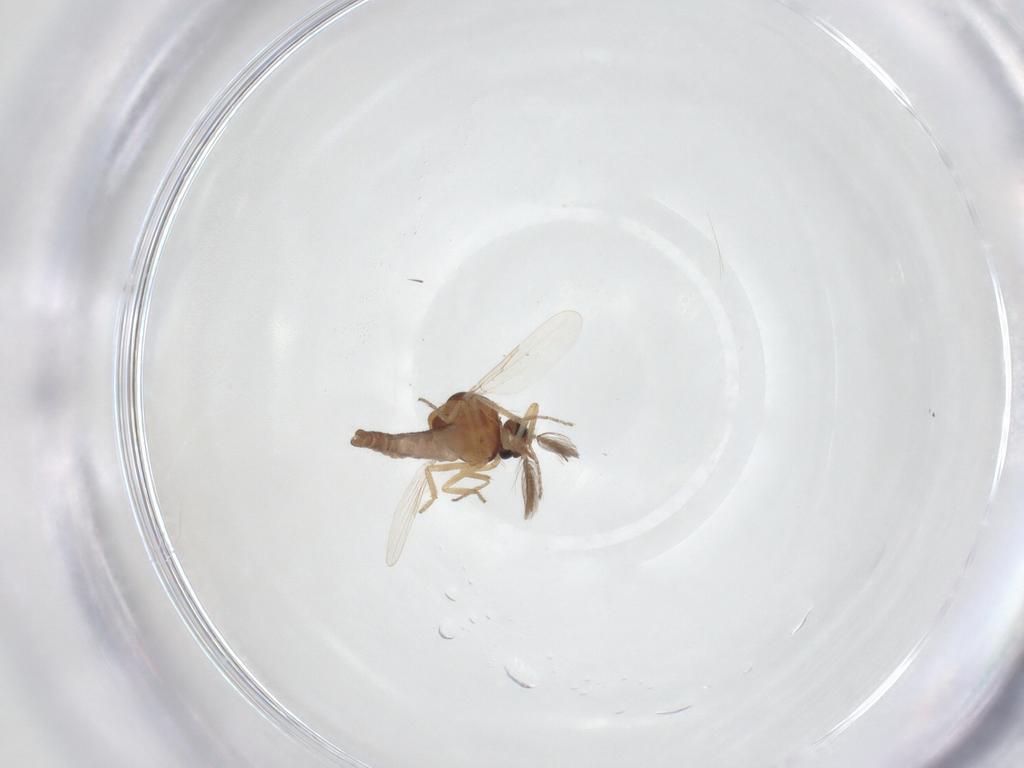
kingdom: Animalia
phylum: Arthropoda
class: Insecta
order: Diptera
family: Ceratopogonidae
